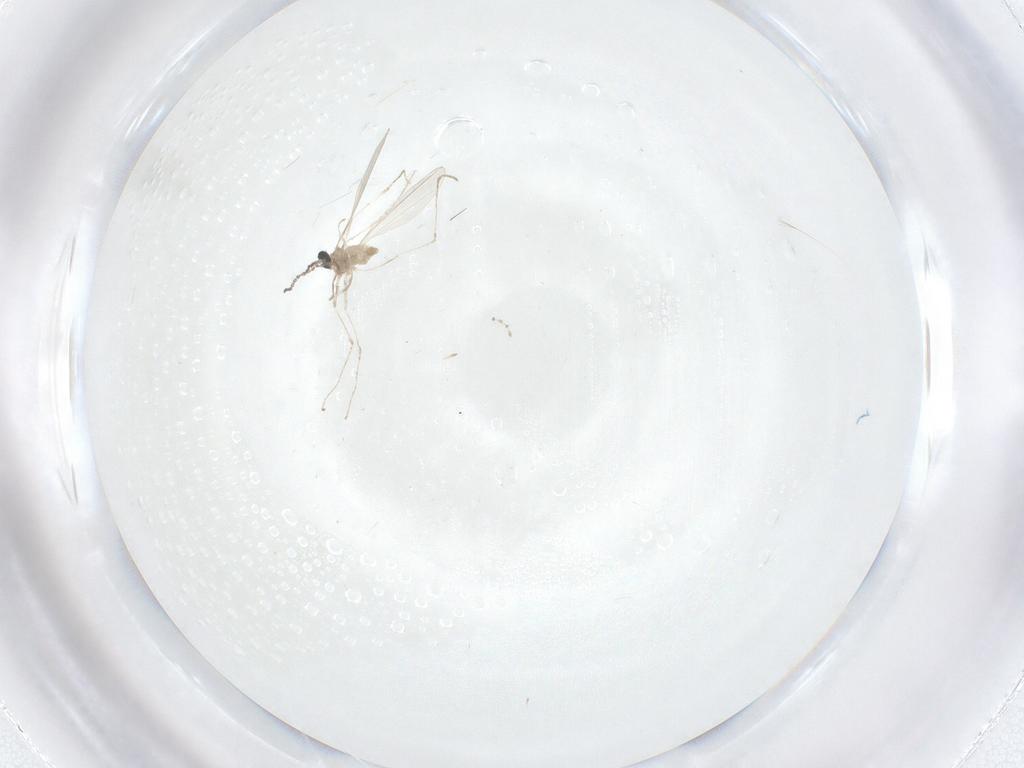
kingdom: Animalia
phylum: Arthropoda
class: Insecta
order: Diptera
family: Cecidomyiidae
